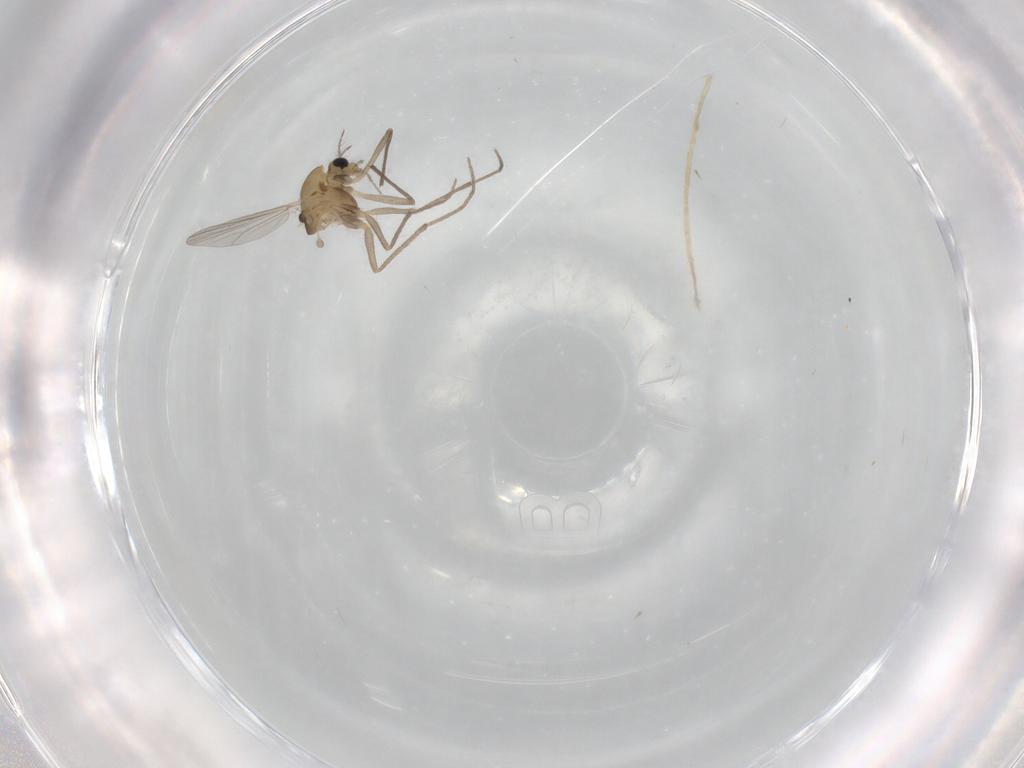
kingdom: Animalia
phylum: Arthropoda
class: Insecta
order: Diptera
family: Chironomidae
